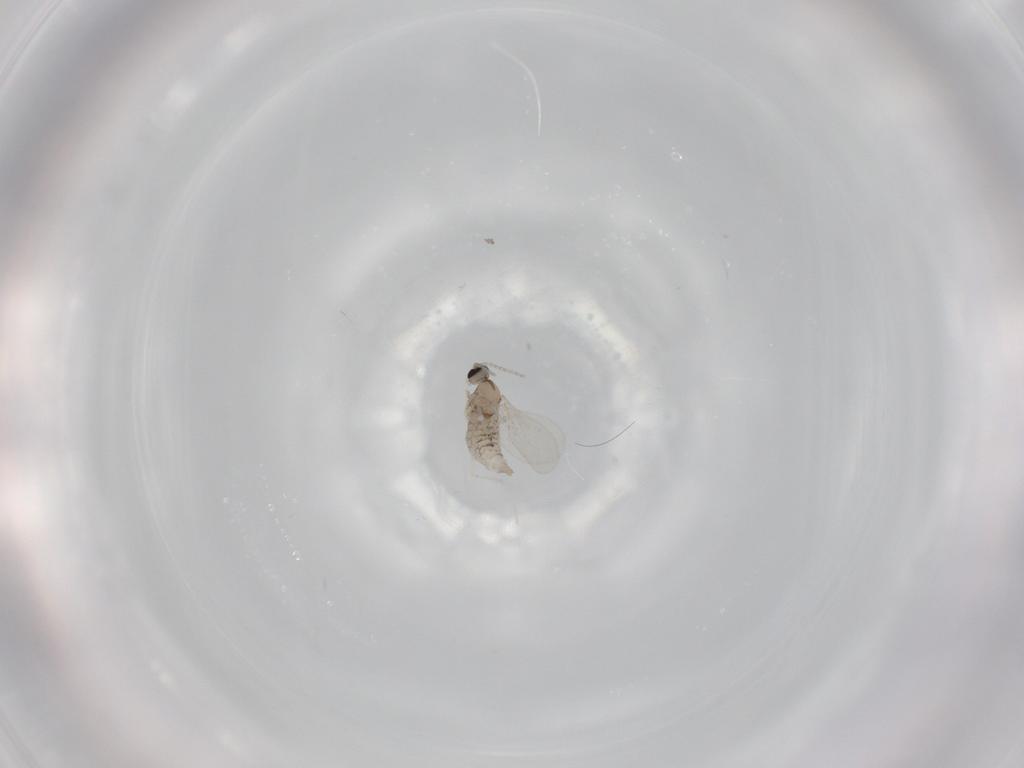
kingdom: Animalia
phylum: Arthropoda
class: Insecta
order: Diptera
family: Cecidomyiidae
